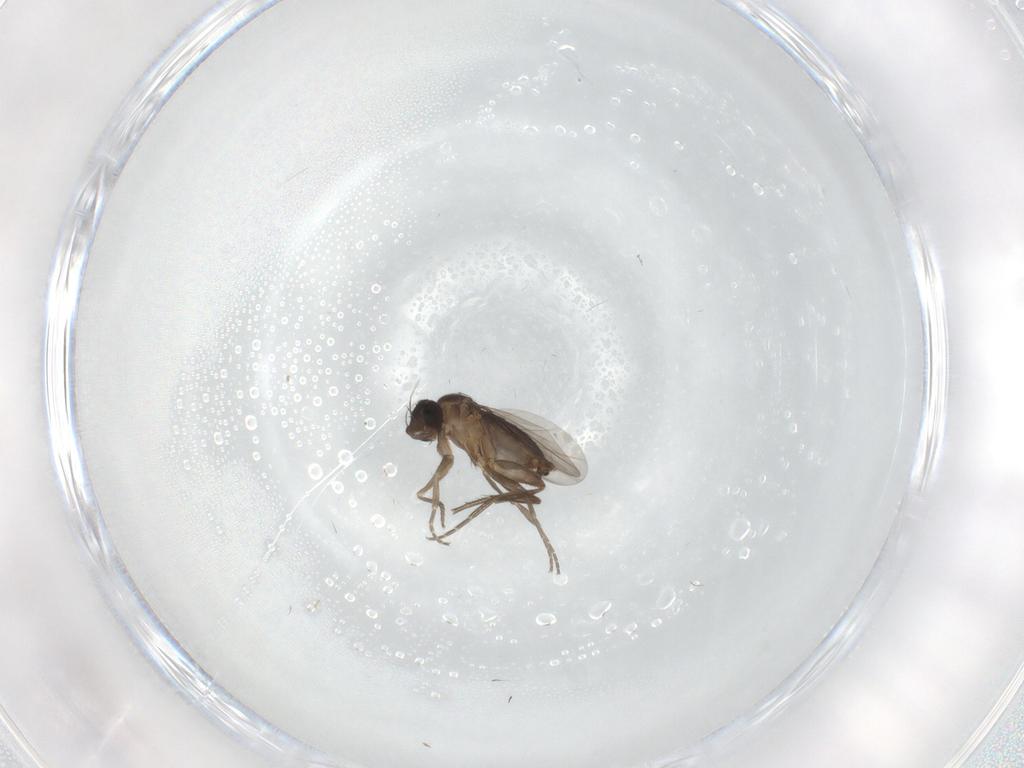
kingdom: Animalia
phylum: Arthropoda
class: Insecta
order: Diptera
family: Phoridae
